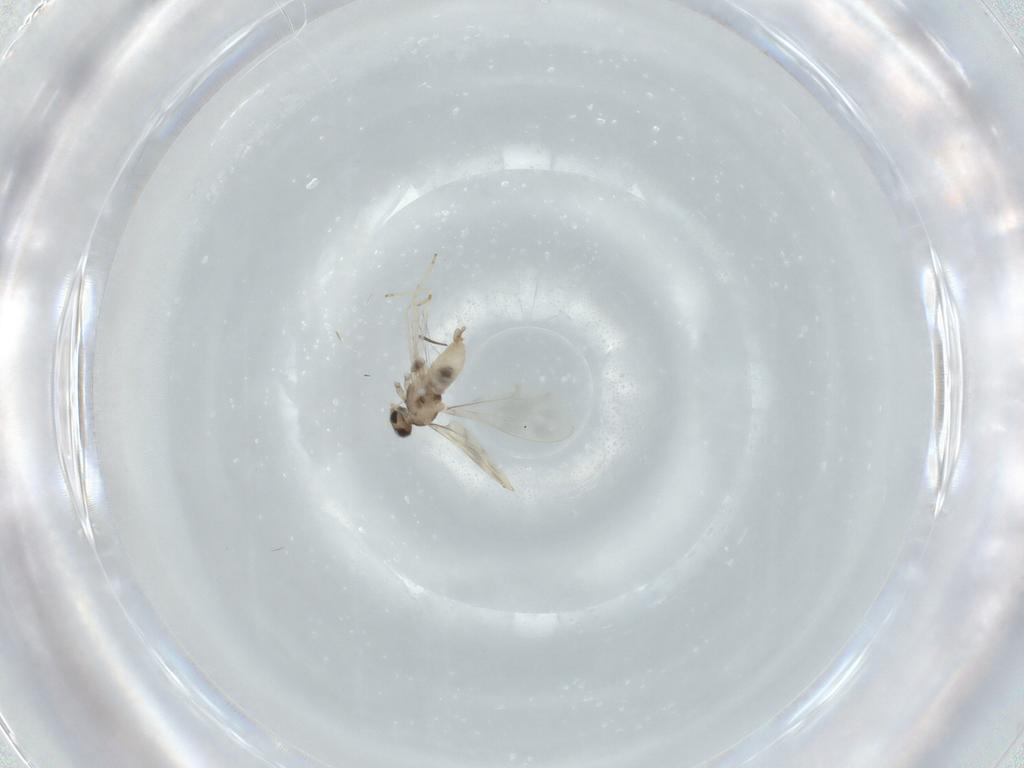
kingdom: Animalia
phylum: Arthropoda
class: Insecta
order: Diptera
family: Cecidomyiidae
